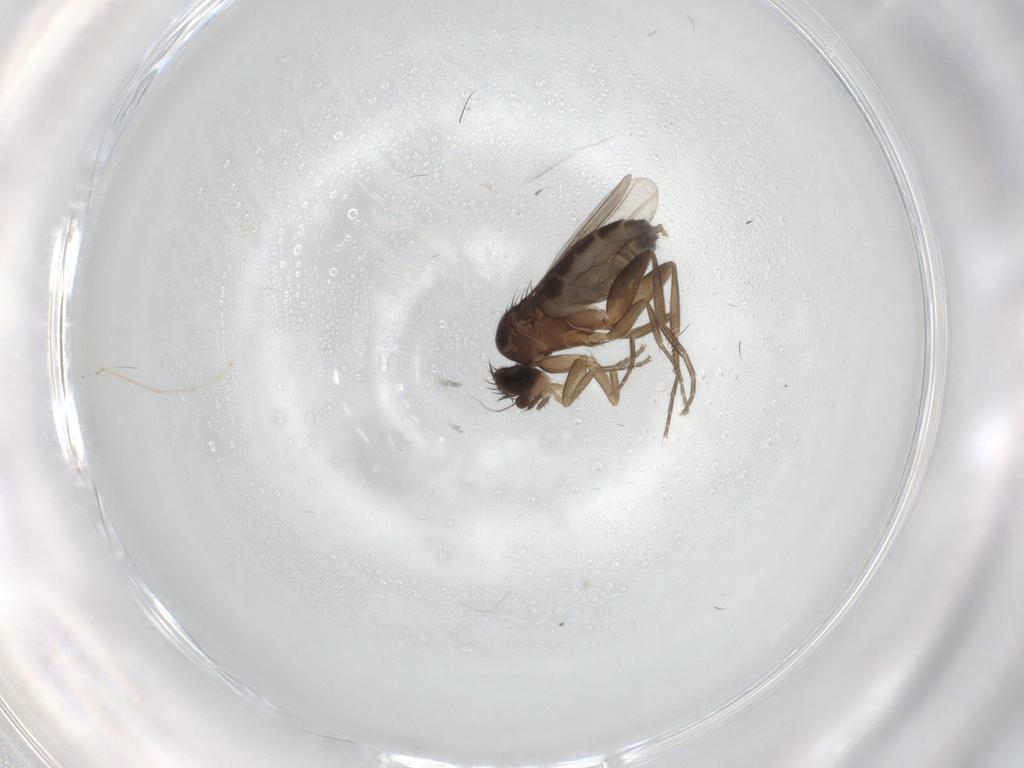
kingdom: Animalia
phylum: Arthropoda
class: Insecta
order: Diptera
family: Phoridae
